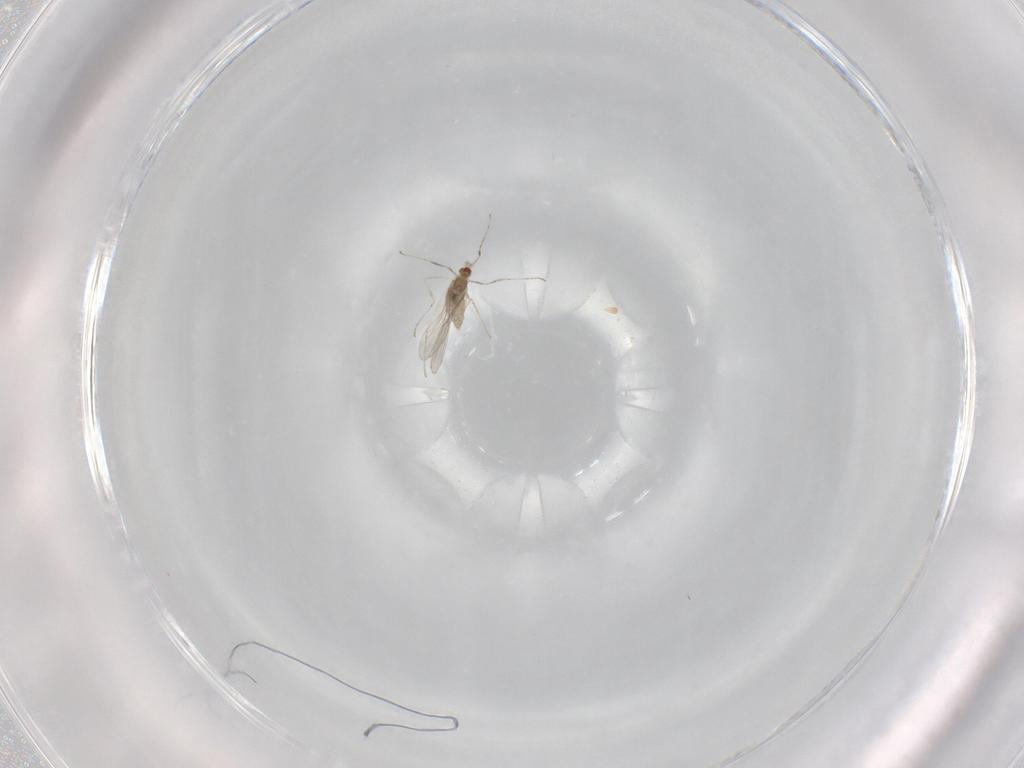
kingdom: Animalia
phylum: Arthropoda
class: Insecta
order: Diptera
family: Cecidomyiidae
